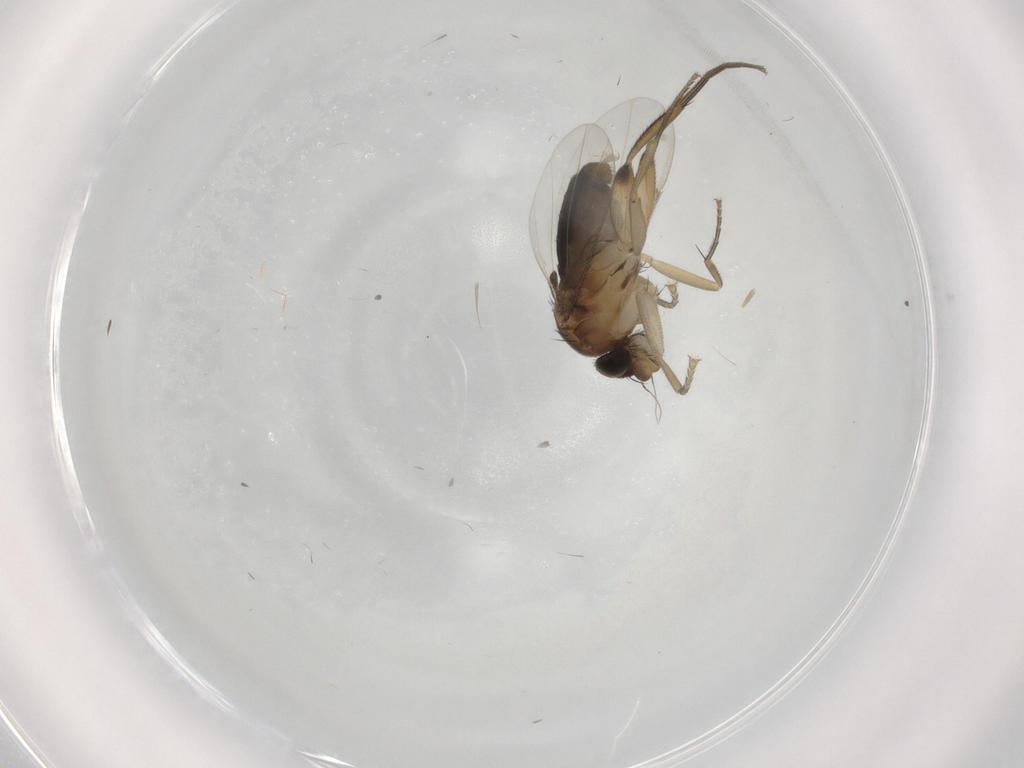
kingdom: Animalia
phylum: Arthropoda
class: Insecta
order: Diptera
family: Phoridae
